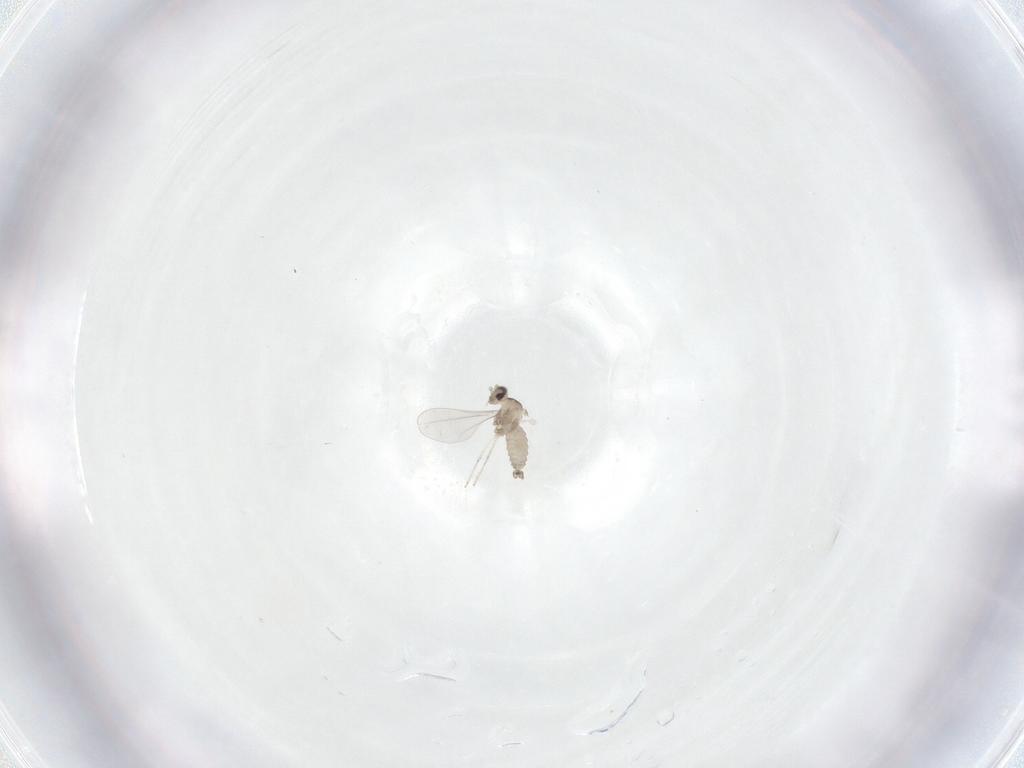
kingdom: Animalia
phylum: Arthropoda
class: Insecta
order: Diptera
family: Cecidomyiidae
